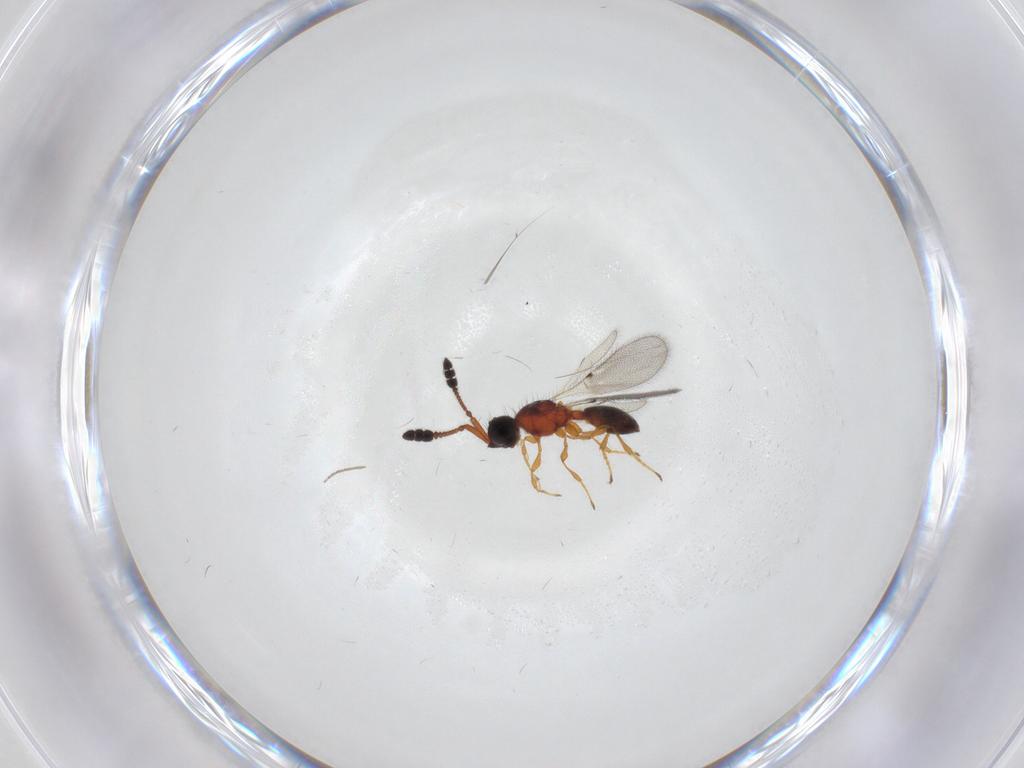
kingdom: Animalia
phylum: Arthropoda
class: Insecta
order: Hymenoptera
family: Diapriidae
